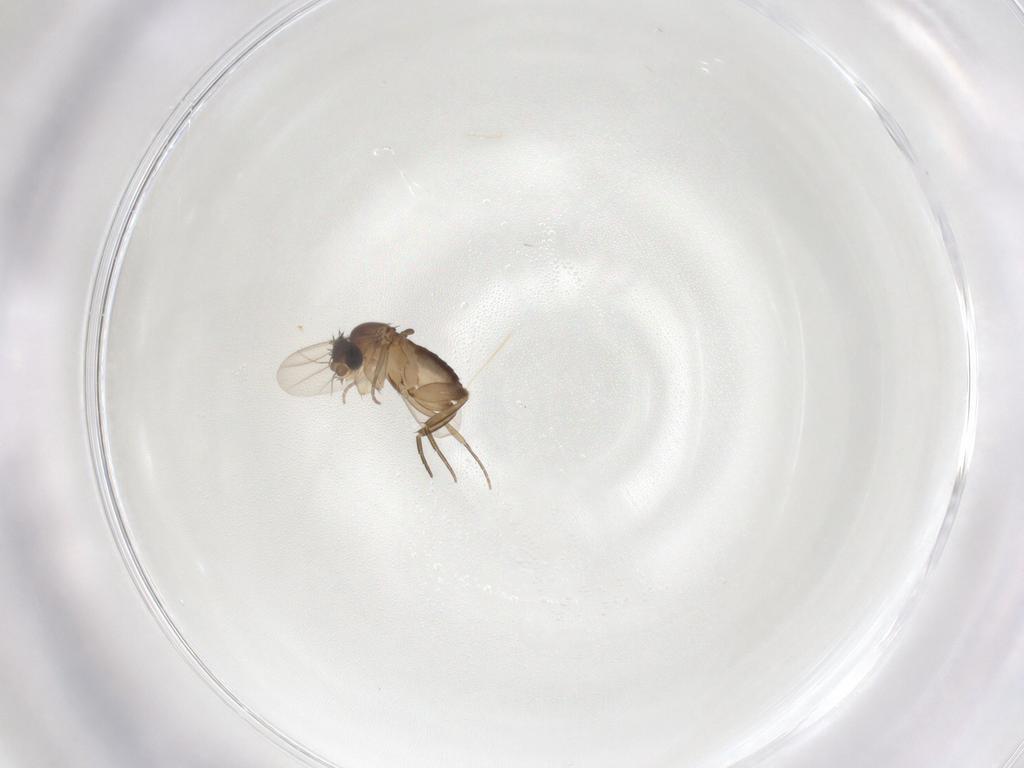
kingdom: Animalia
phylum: Arthropoda
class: Insecta
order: Diptera
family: Phoridae
